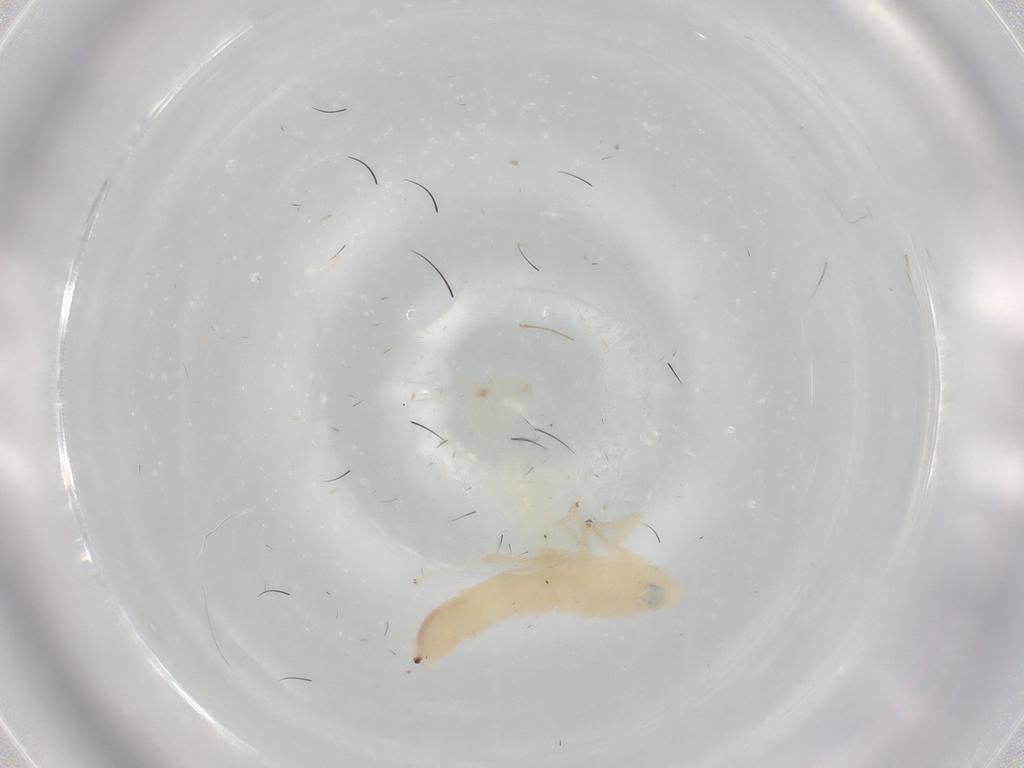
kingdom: Animalia
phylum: Arthropoda
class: Insecta
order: Hemiptera
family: Cicadellidae
